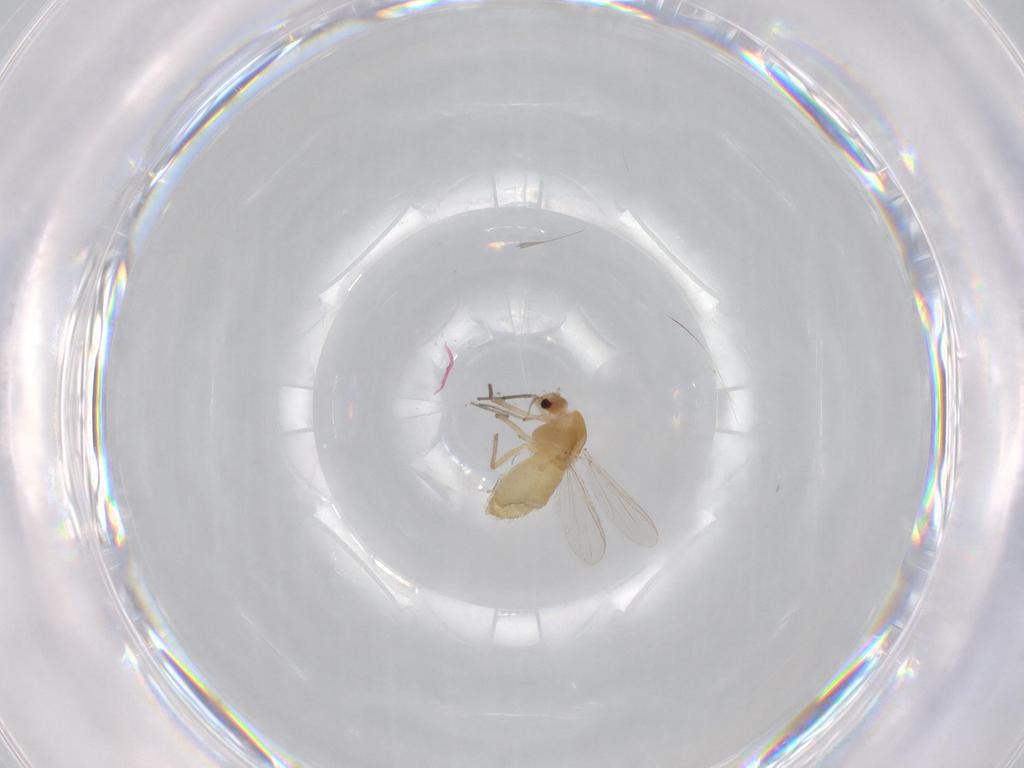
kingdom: Animalia
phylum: Arthropoda
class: Insecta
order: Diptera
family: Chironomidae
